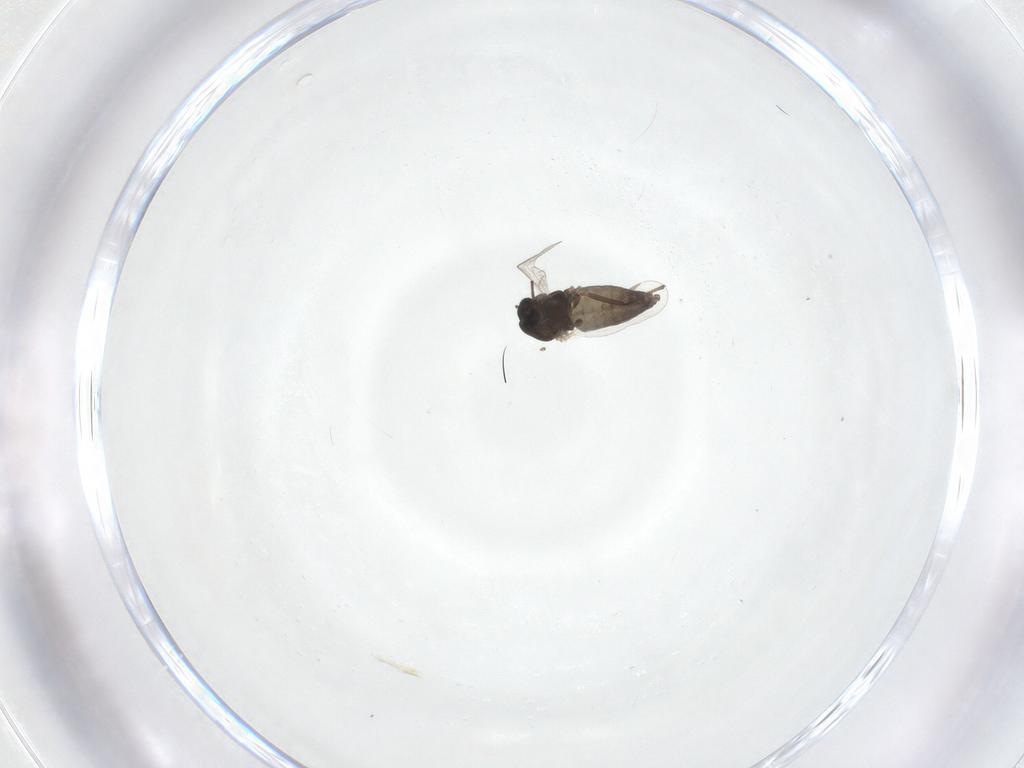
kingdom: Animalia
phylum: Arthropoda
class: Insecta
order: Diptera
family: Chironomidae
